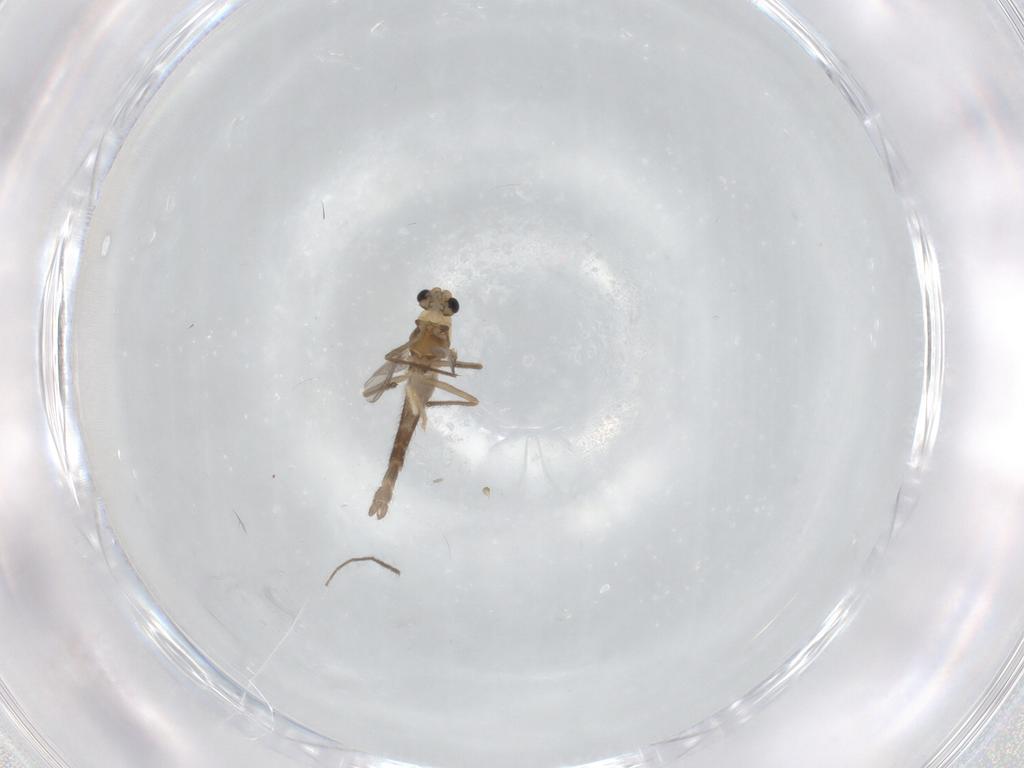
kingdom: Animalia
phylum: Arthropoda
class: Insecta
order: Diptera
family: Chironomidae
